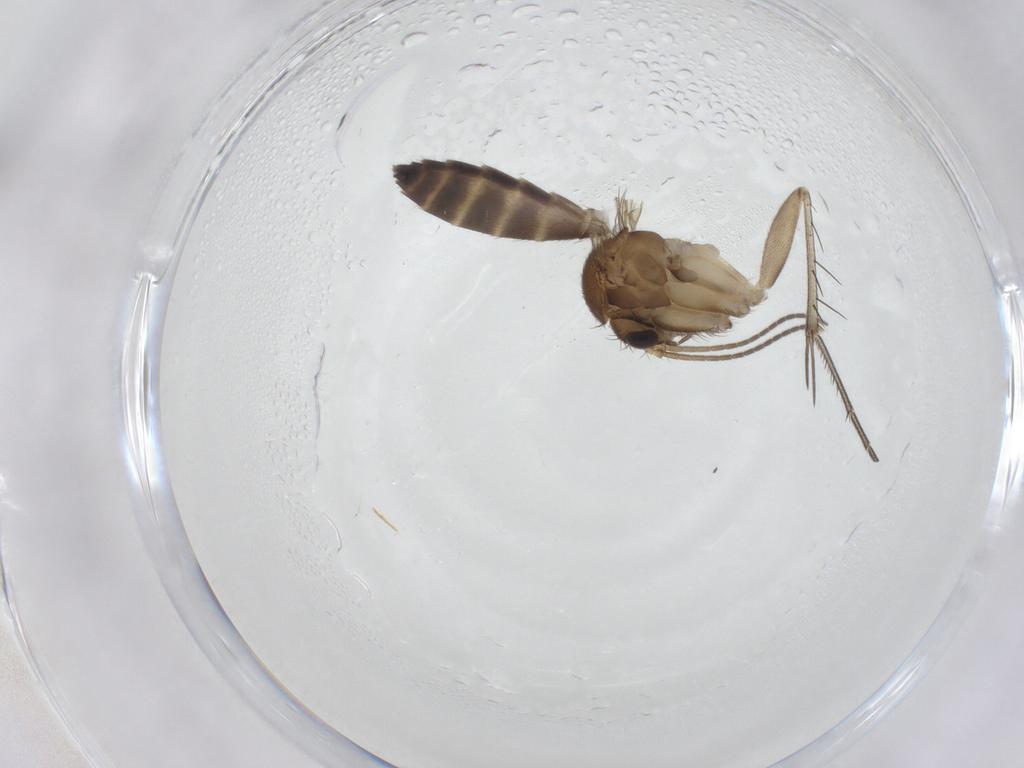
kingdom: Animalia
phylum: Arthropoda
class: Insecta
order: Diptera
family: Mycetophilidae
